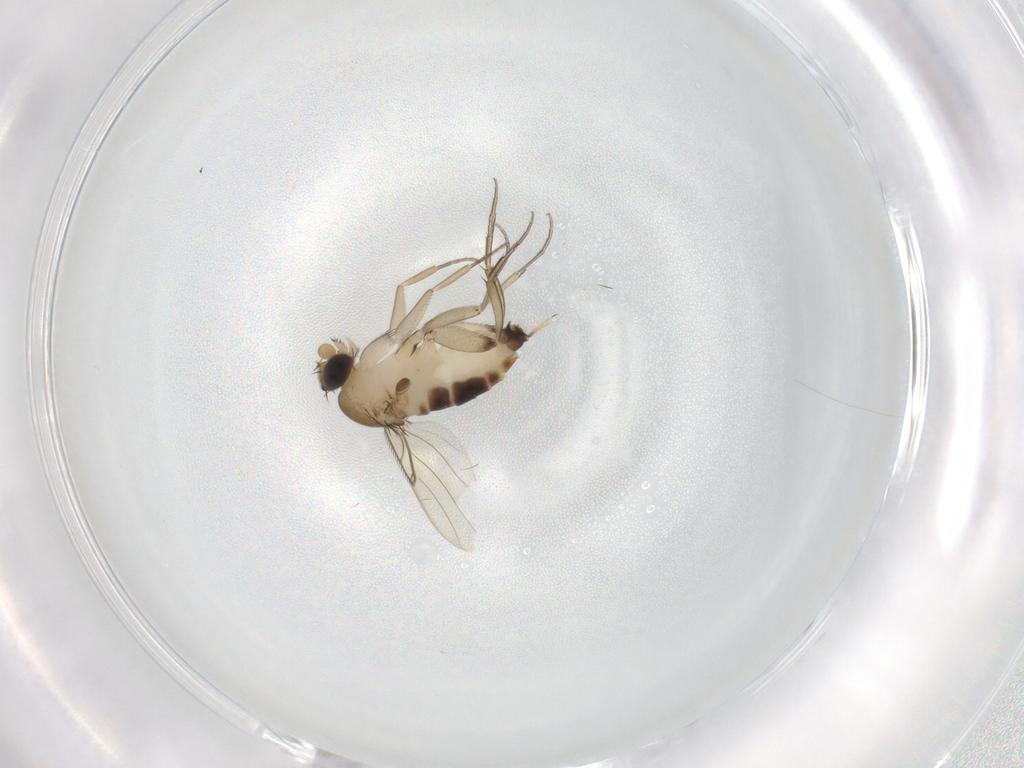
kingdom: Animalia
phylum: Arthropoda
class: Insecta
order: Diptera
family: Phoridae
